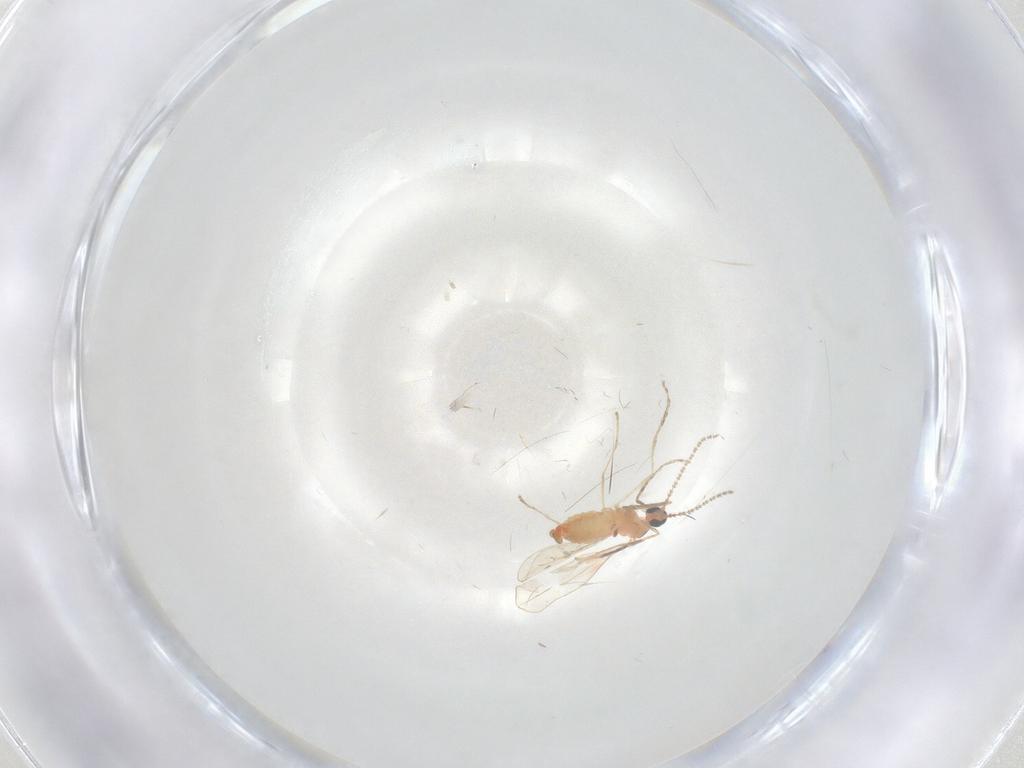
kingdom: Animalia
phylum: Arthropoda
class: Insecta
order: Diptera
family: Cecidomyiidae
